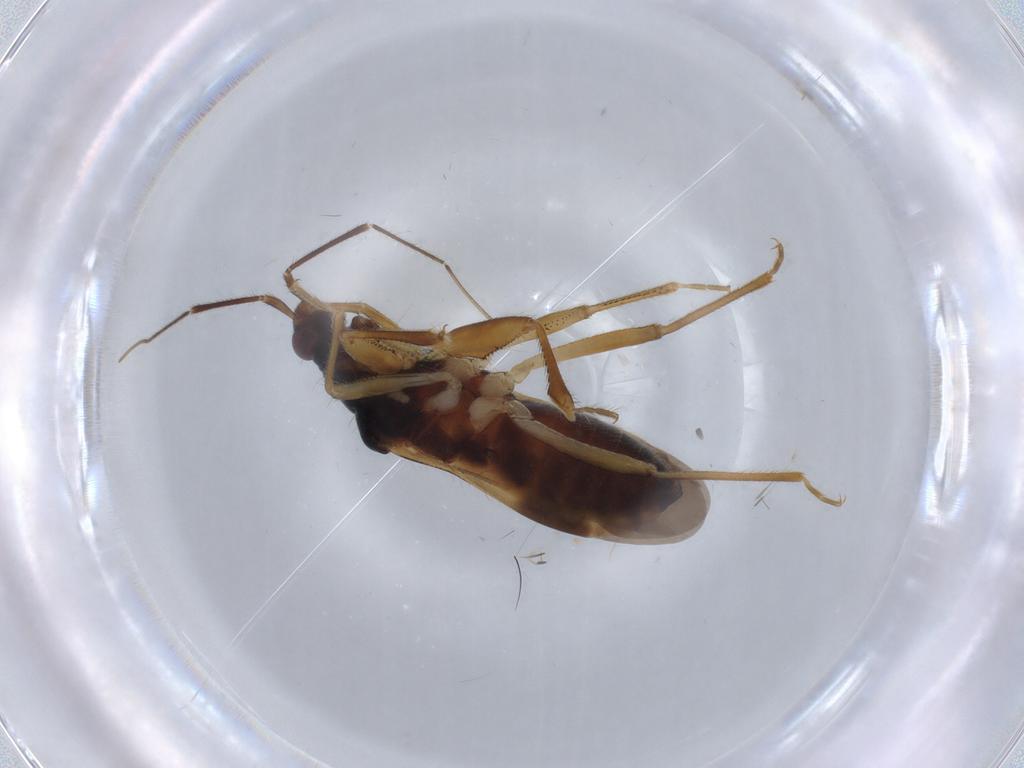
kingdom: Animalia
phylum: Arthropoda
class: Insecta
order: Hemiptera
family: Nabidae
